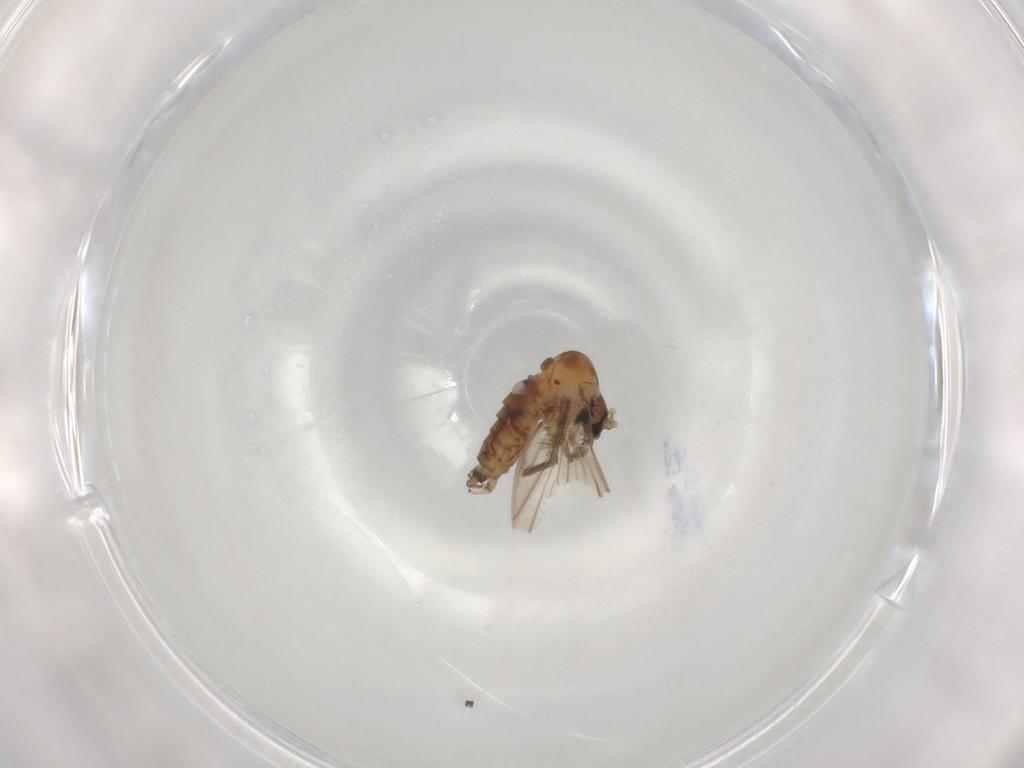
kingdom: Animalia
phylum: Arthropoda
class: Insecta
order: Diptera
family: Psychodidae
